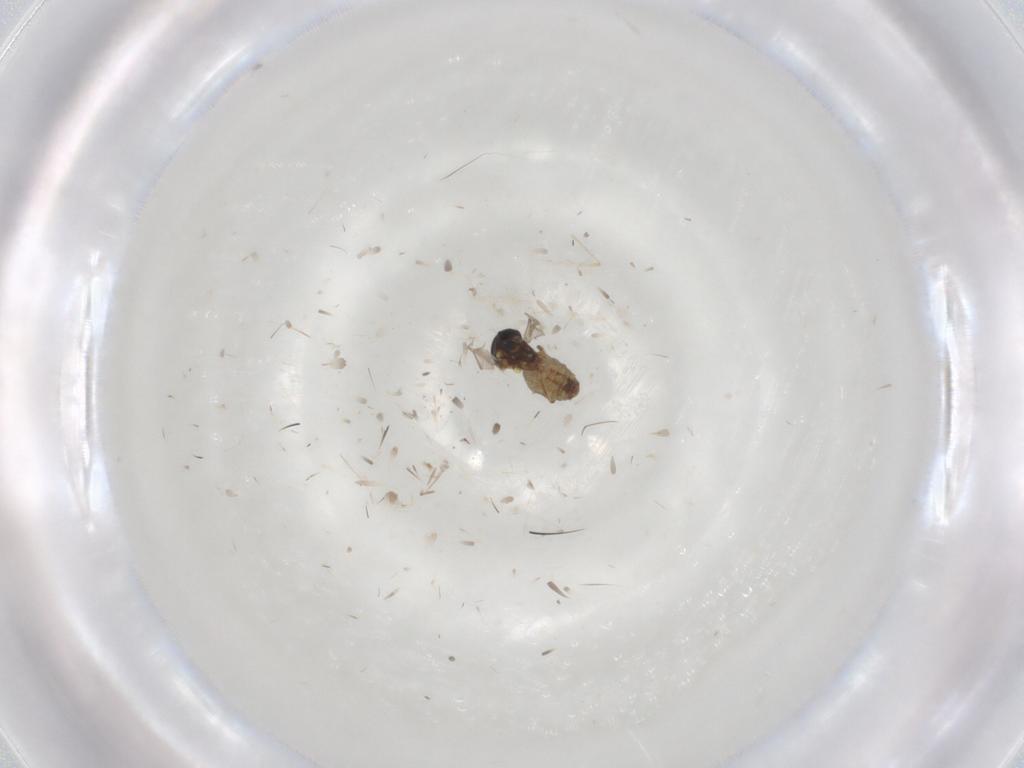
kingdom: Animalia
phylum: Arthropoda
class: Insecta
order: Diptera
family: Ceratopogonidae
